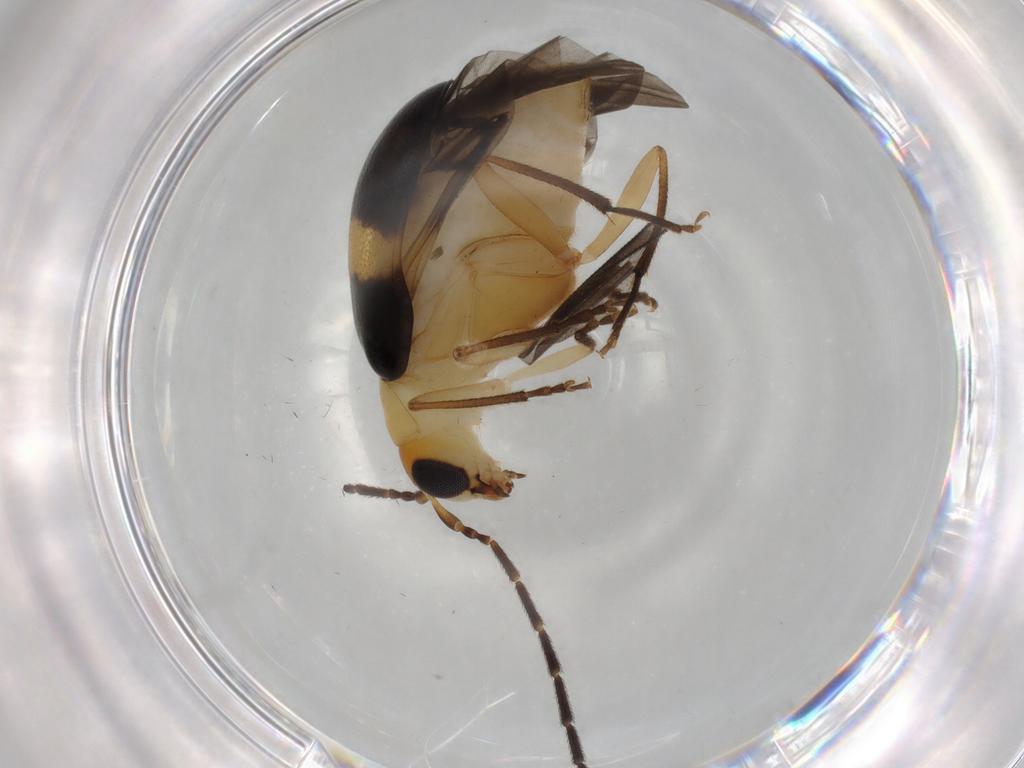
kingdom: Animalia
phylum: Arthropoda
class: Insecta
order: Coleoptera
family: Chrysomelidae
